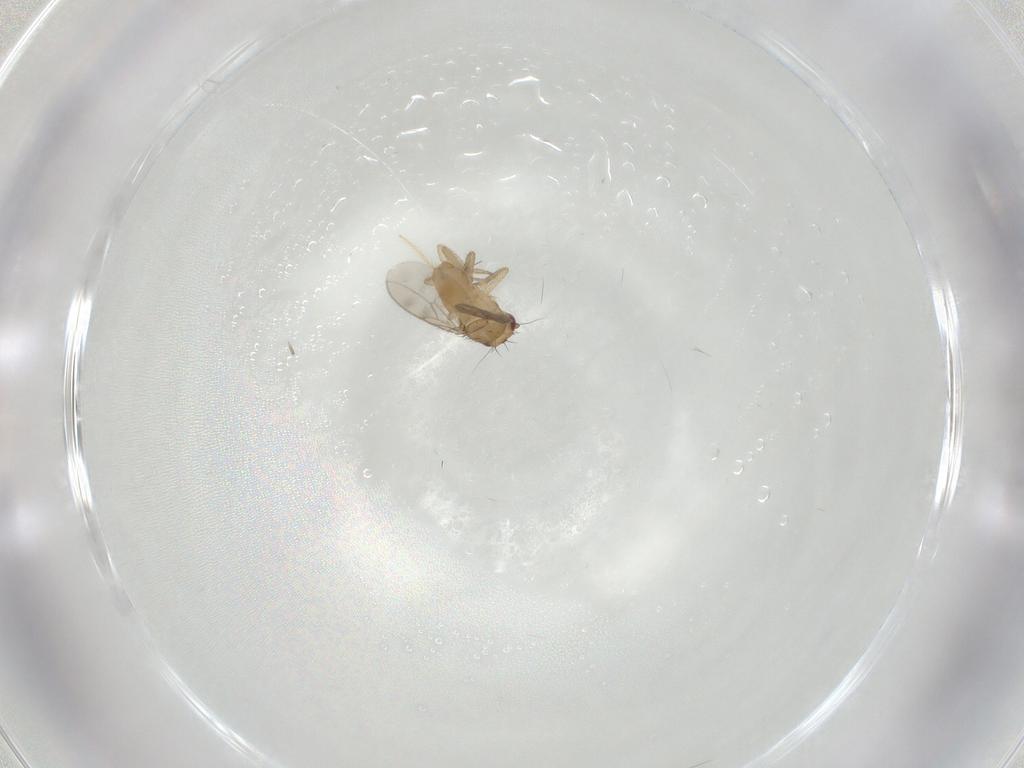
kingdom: Animalia
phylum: Arthropoda
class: Insecta
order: Diptera
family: Sphaeroceridae
